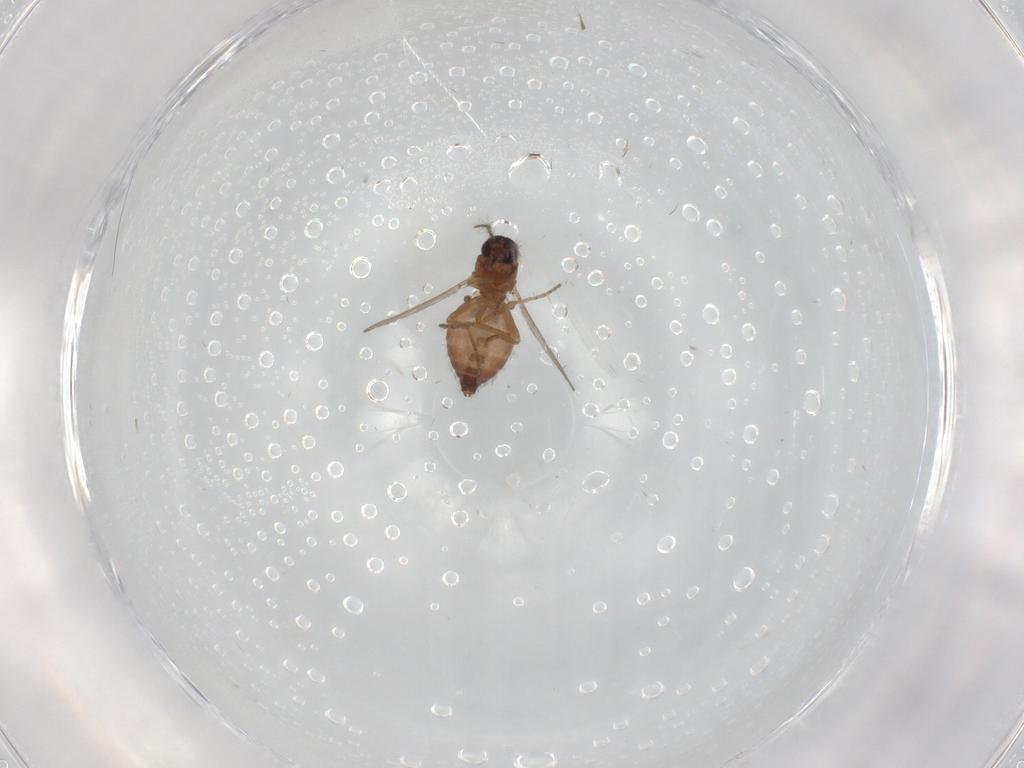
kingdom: Animalia
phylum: Arthropoda
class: Insecta
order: Diptera
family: Ceratopogonidae
